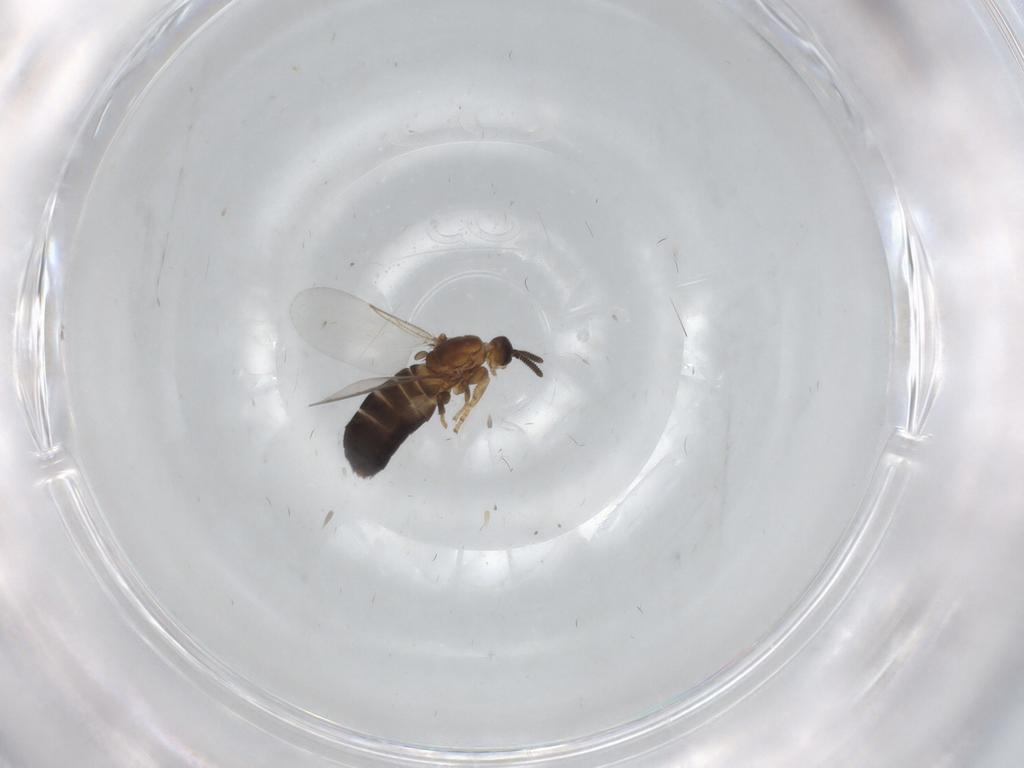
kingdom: Animalia
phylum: Arthropoda
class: Insecta
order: Diptera
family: Scatopsidae
